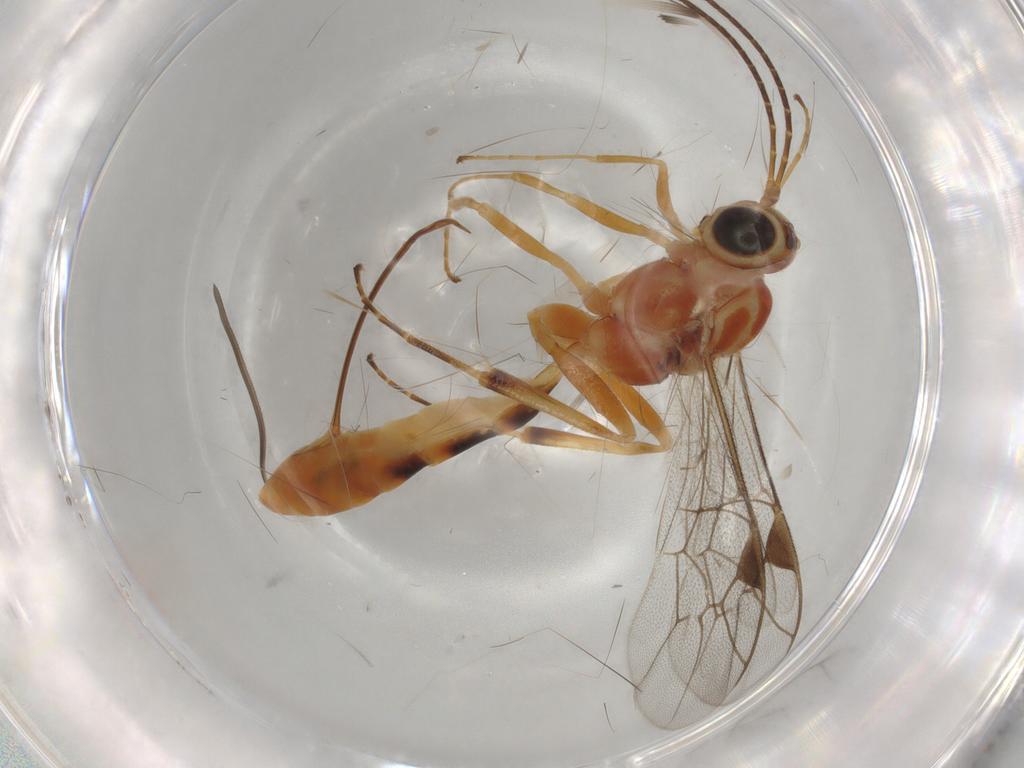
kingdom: Animalia
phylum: Arthropoda
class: Insecta
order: Hymenoptera
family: Ichneumonidae
